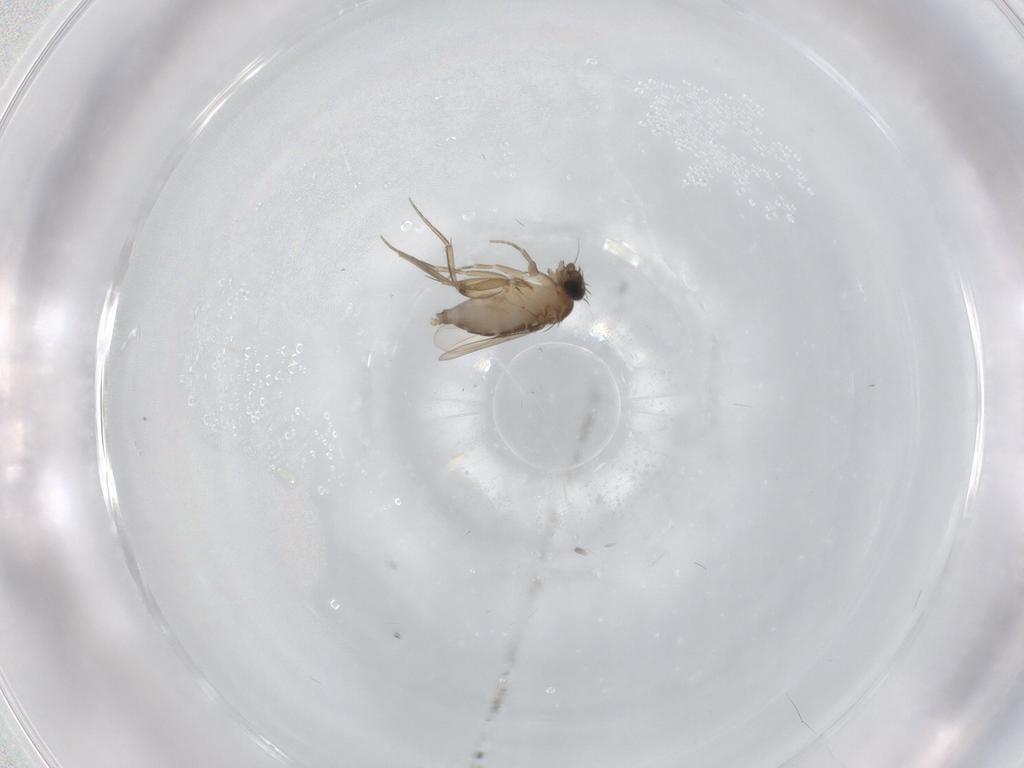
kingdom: Animalia
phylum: Arthropoda
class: Insecta
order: Diptera
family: Phoridae
